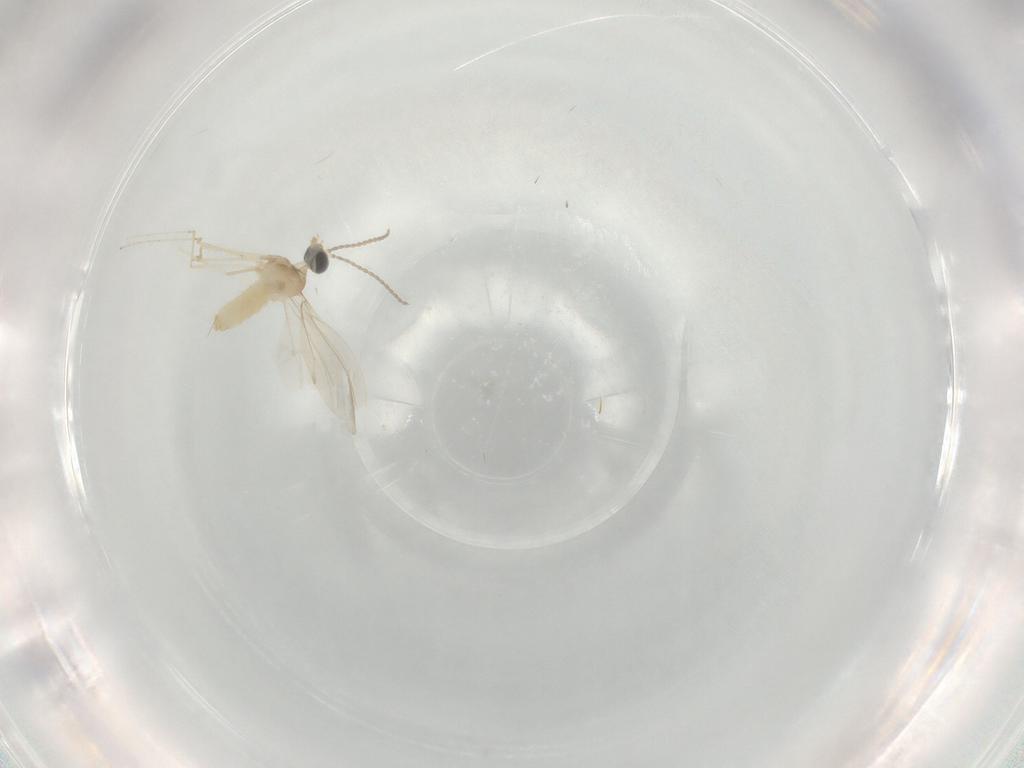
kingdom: Animalia
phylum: Arthropoda
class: Insecta
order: Diptera
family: Cecidomyiidae
